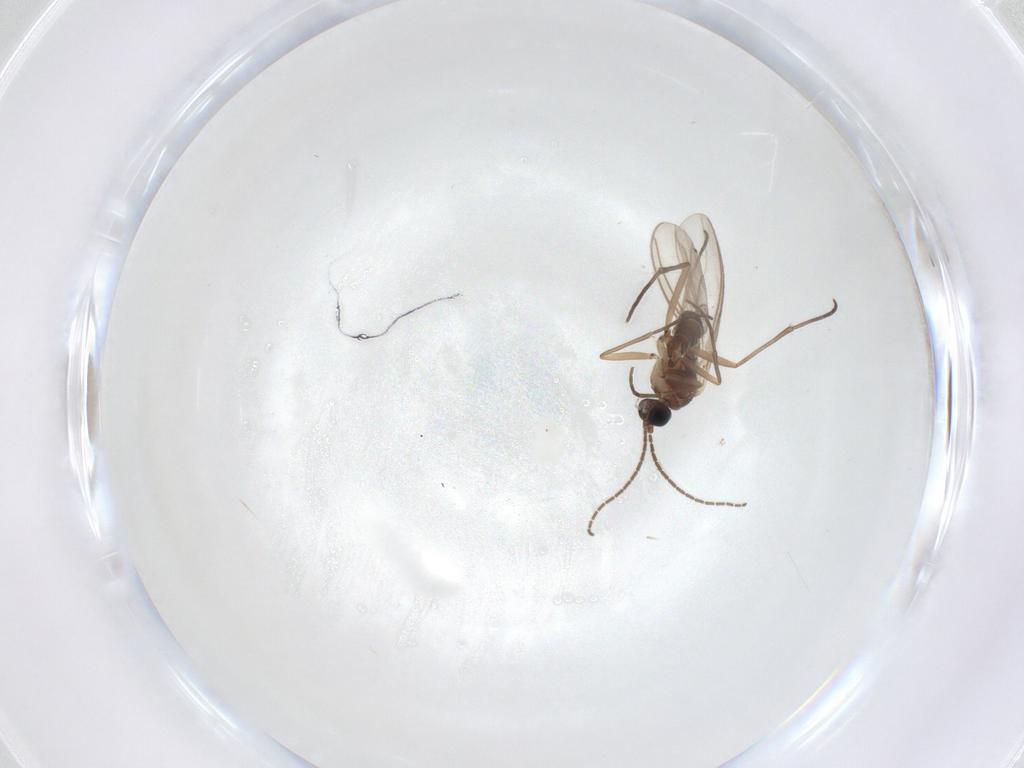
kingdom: Animalia
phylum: Arthropoda
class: Insecta
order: Diptera
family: Sciaridae
